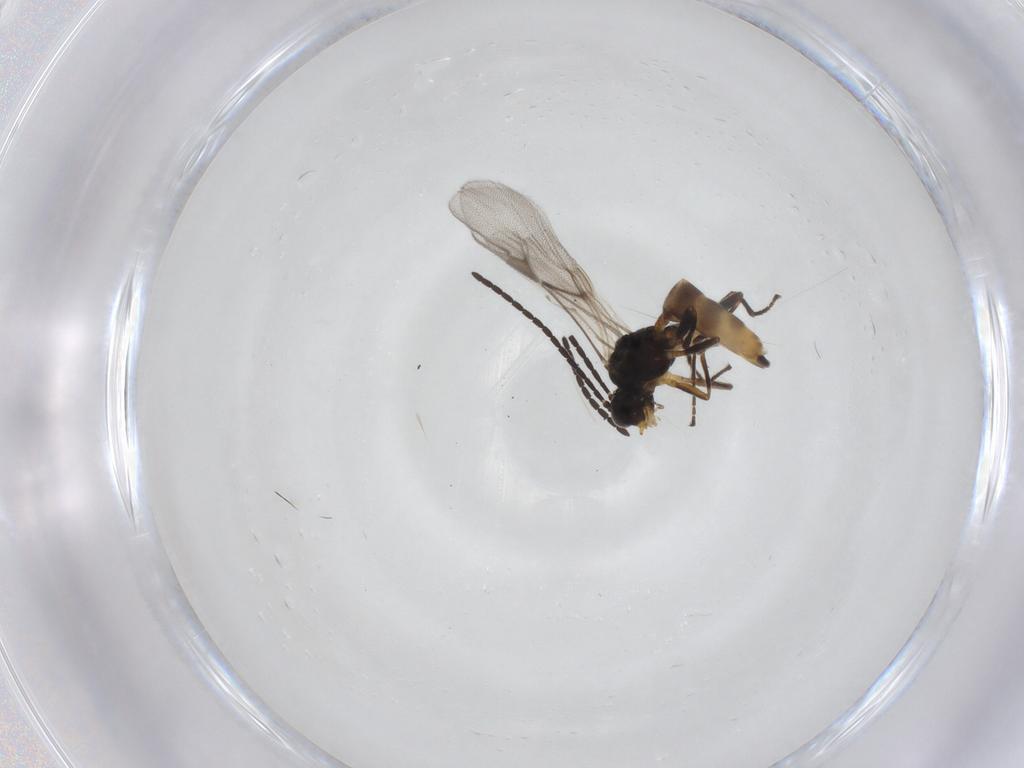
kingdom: Animalia
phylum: Arthropoda
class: Insecta
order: Hymenoptera
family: Braconidae
